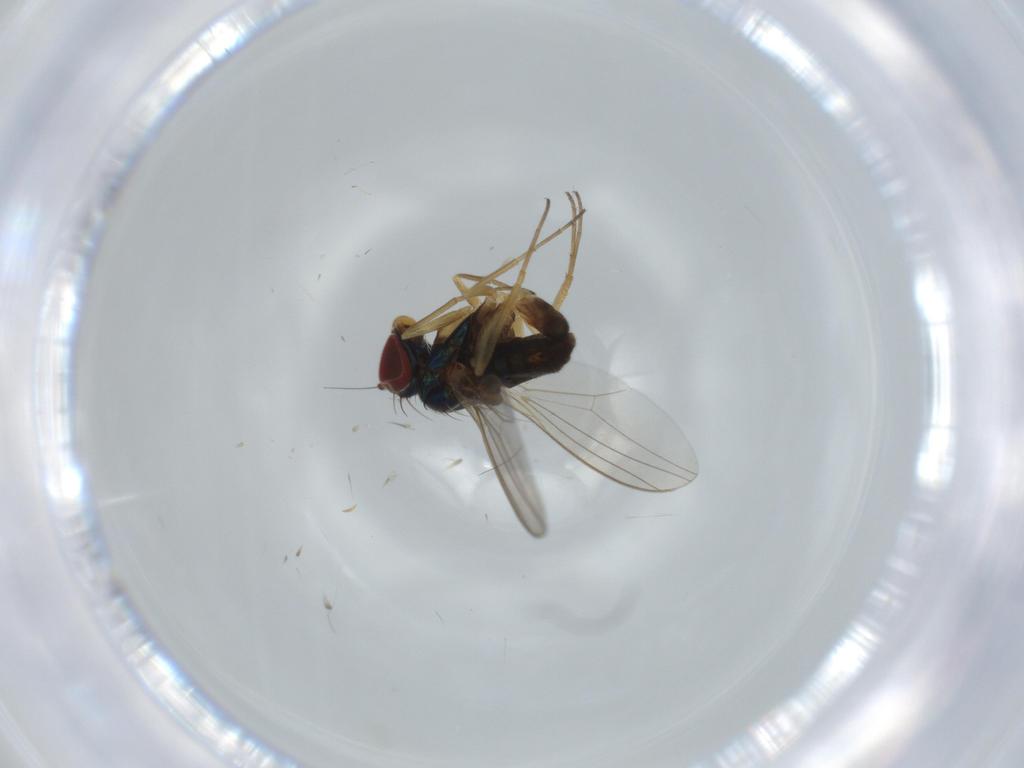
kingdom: Animalia
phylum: Arthropoda
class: Insecta
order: Diptera
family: Dolichopodidae
